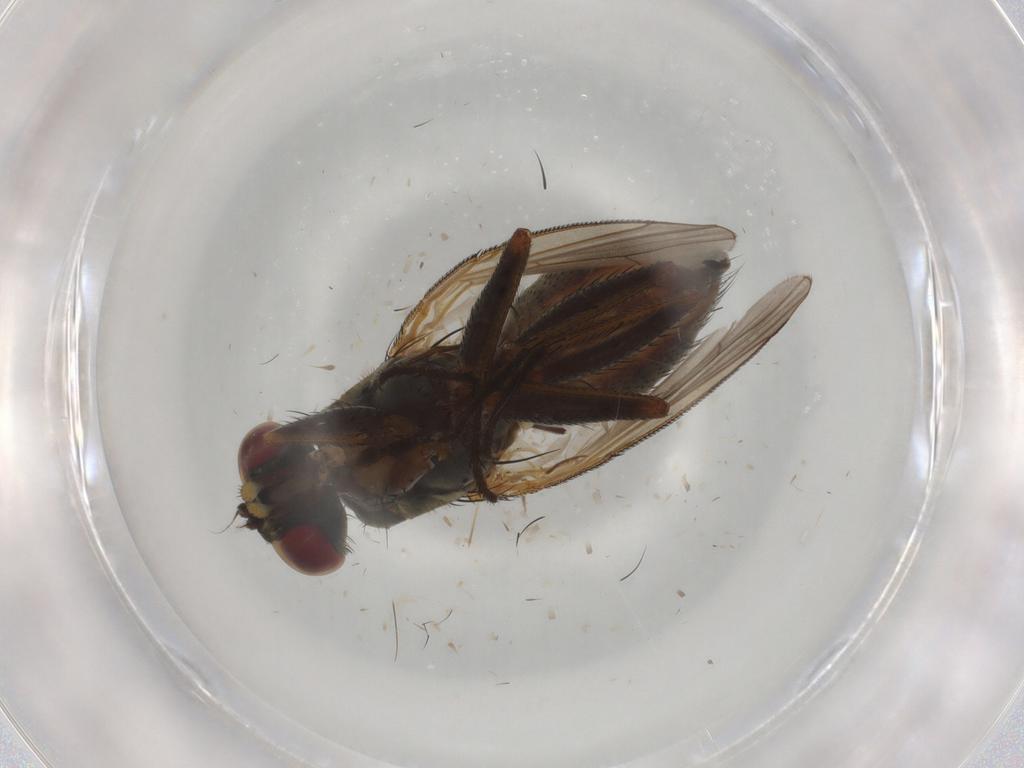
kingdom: Animalia
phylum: Arthropoda
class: Insecta
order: Diptera
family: Muscidae
